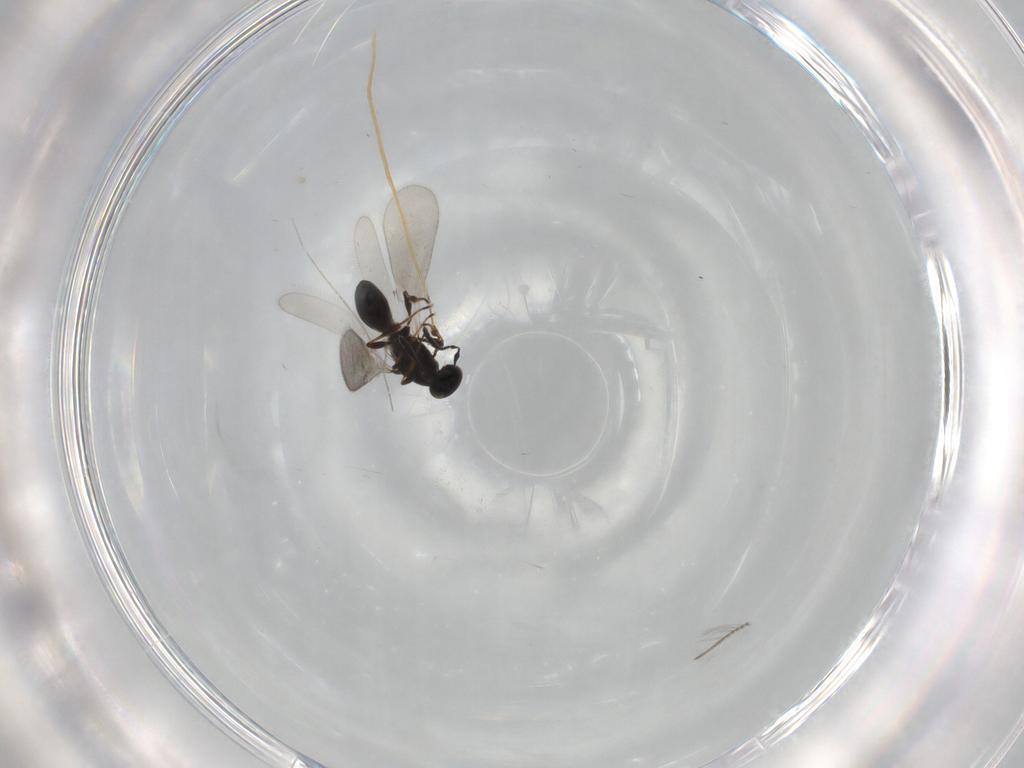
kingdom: Animalia
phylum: Arthropoda
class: Insecta
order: Hymenoptera
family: Platygastridae
